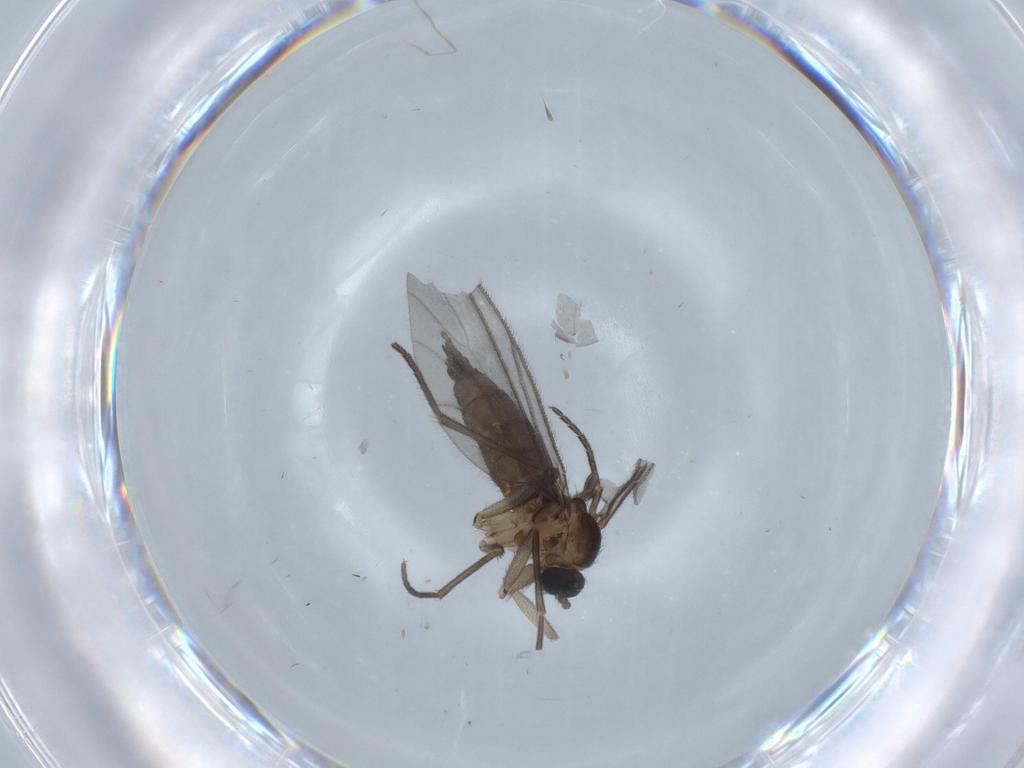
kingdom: Animalia
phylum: Arthropoda
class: Insecta
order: Diptera
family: Sciaridae
